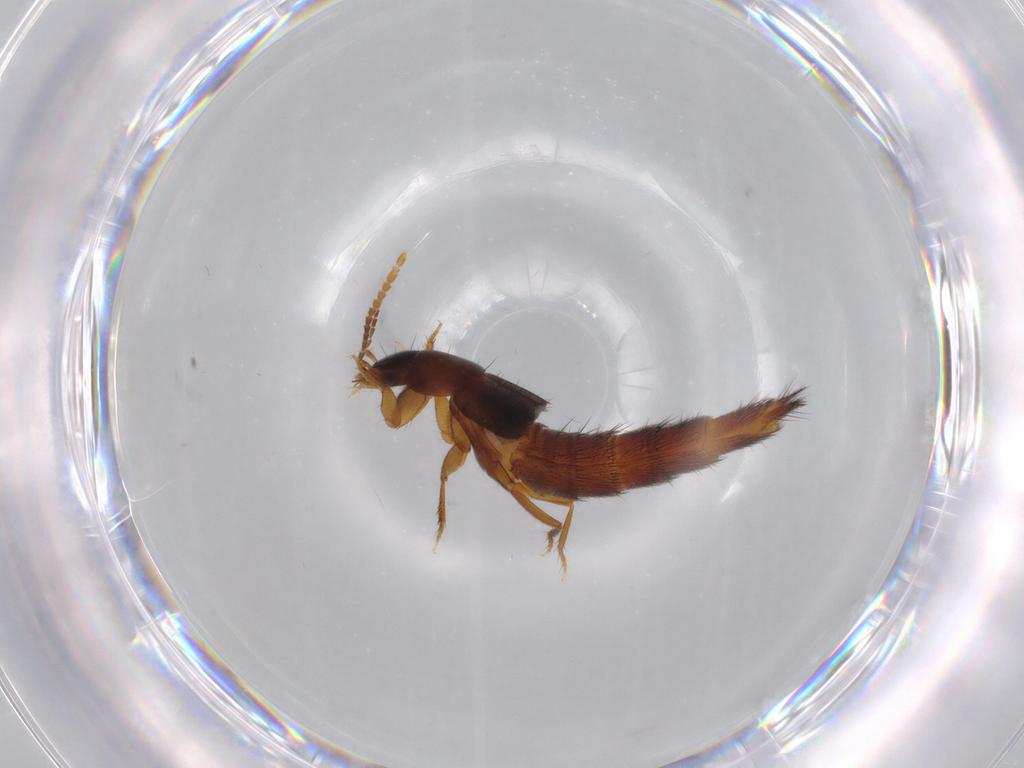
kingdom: Animalia
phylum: Arthropoda
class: Insecta
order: Coleoptera
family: Staphylinidae
